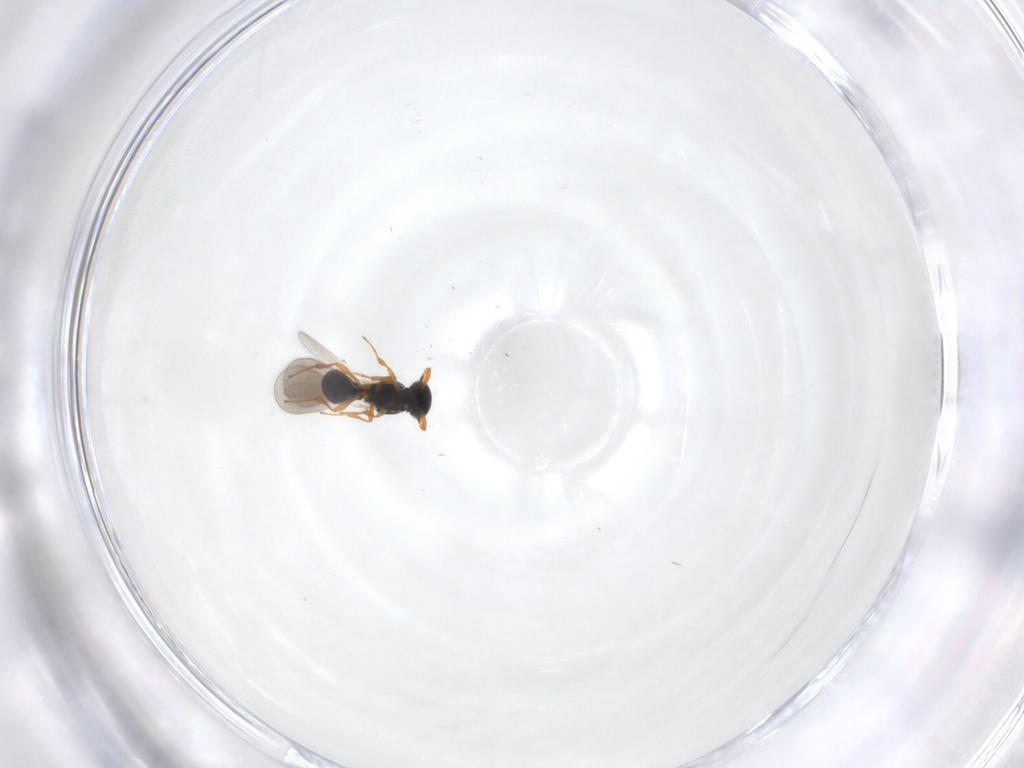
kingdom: Animalia
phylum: Arthropoda
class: Insecta
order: Hymenoptera
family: Platygastridae
